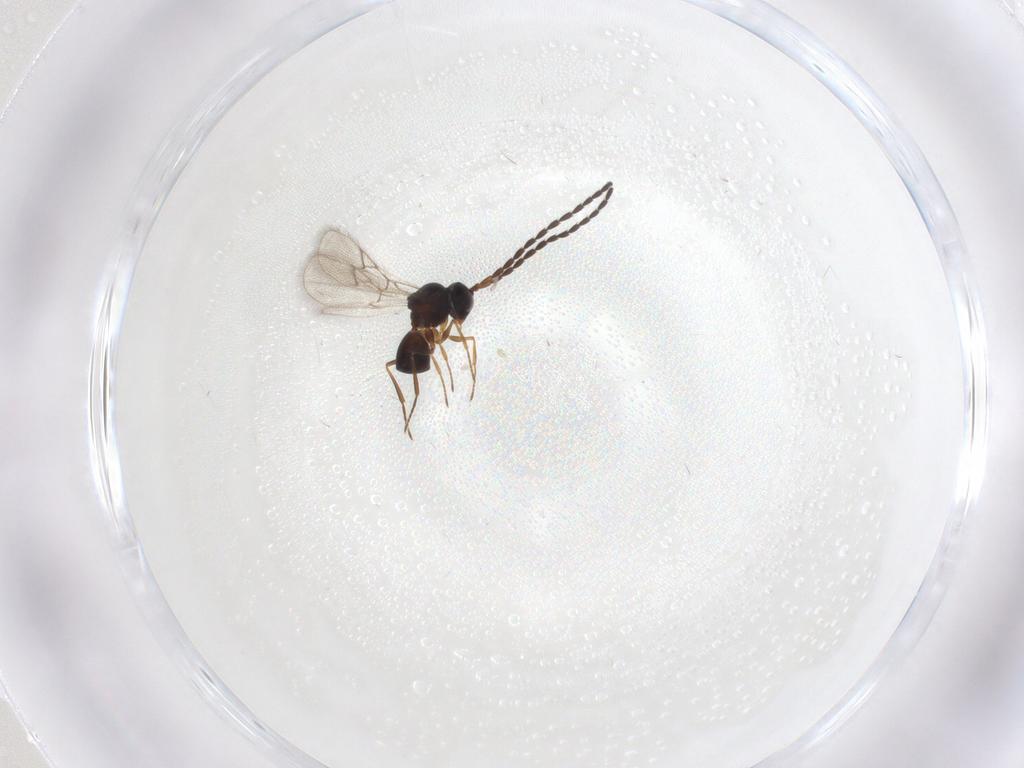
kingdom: Animalia
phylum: Arthropoda
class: Insecta
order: Hymenoptera
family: Figitidae
